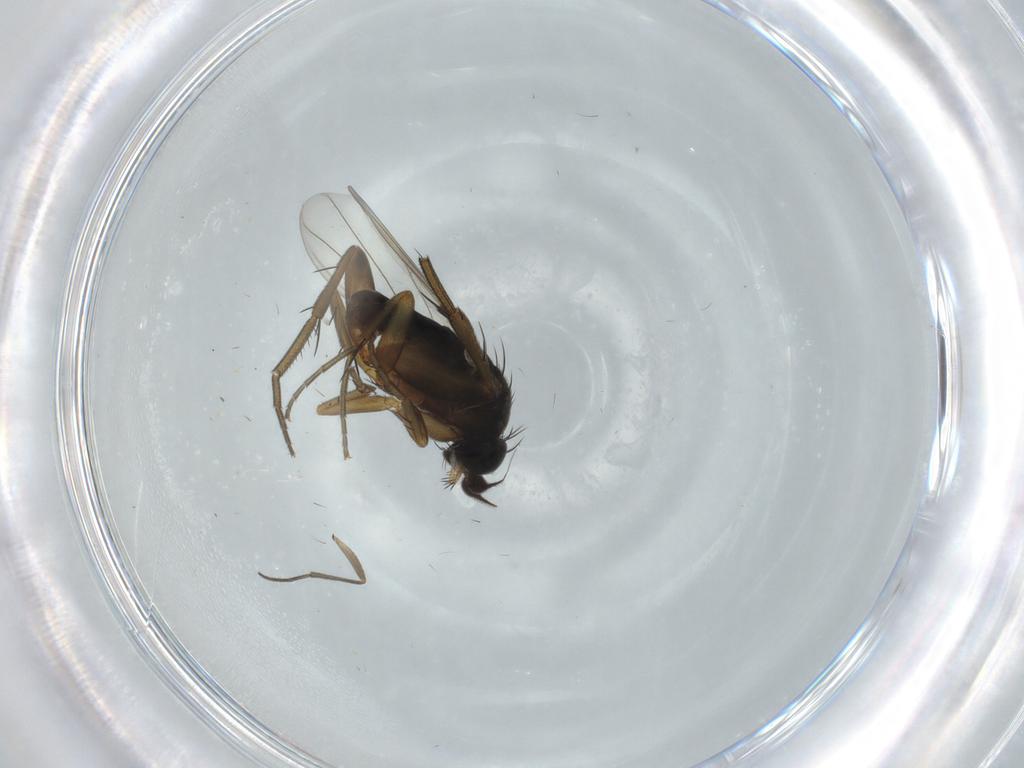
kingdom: Animalia
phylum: Arthropoda
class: Insecta
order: Diptera
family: Phoridae
